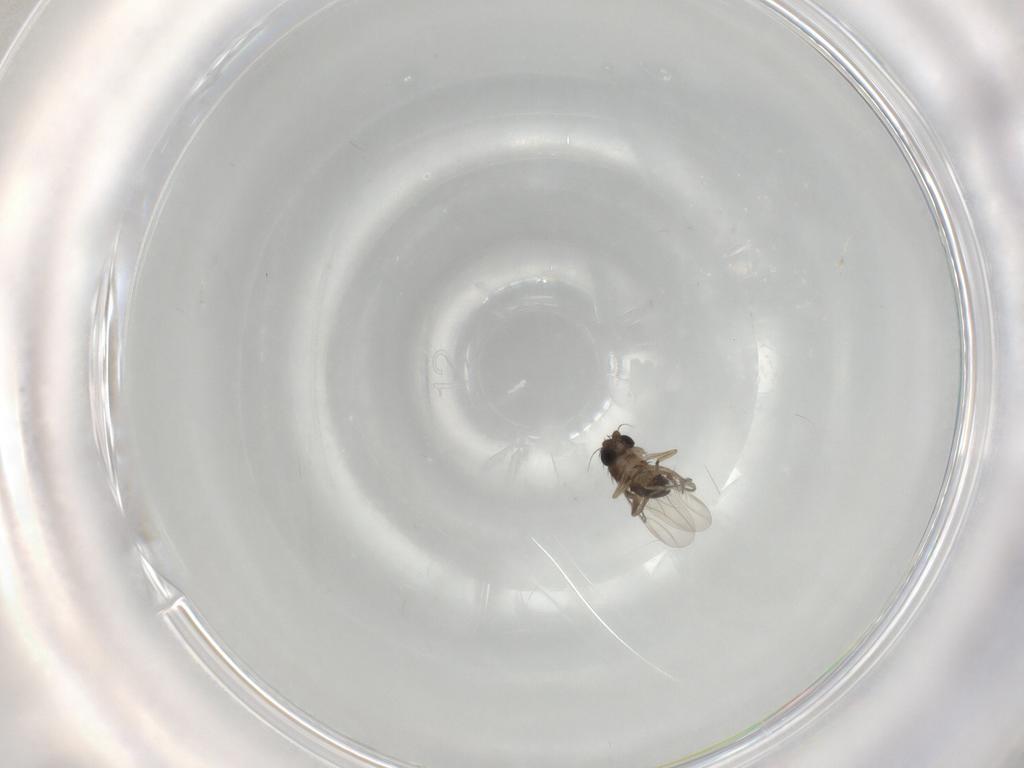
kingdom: Animalia
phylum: Arthropoda
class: Insecta
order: Diptera
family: Phoridae
